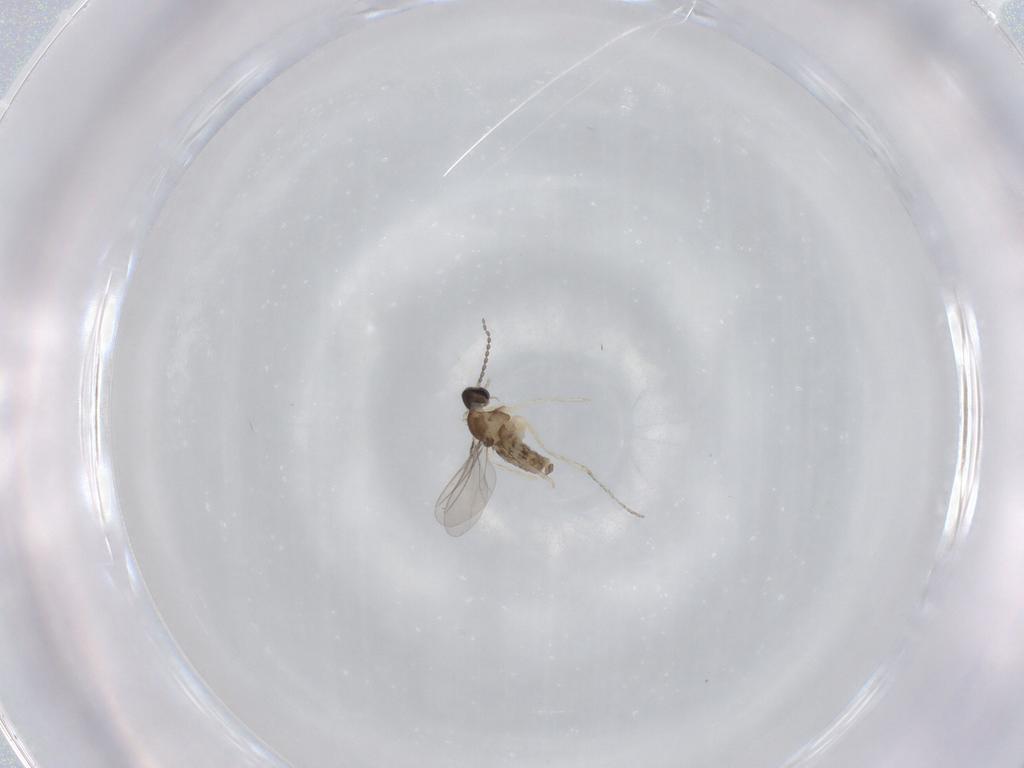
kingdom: Animalia
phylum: Arthropoda
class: Insecta
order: Diptera
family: Cecidomyiidae
